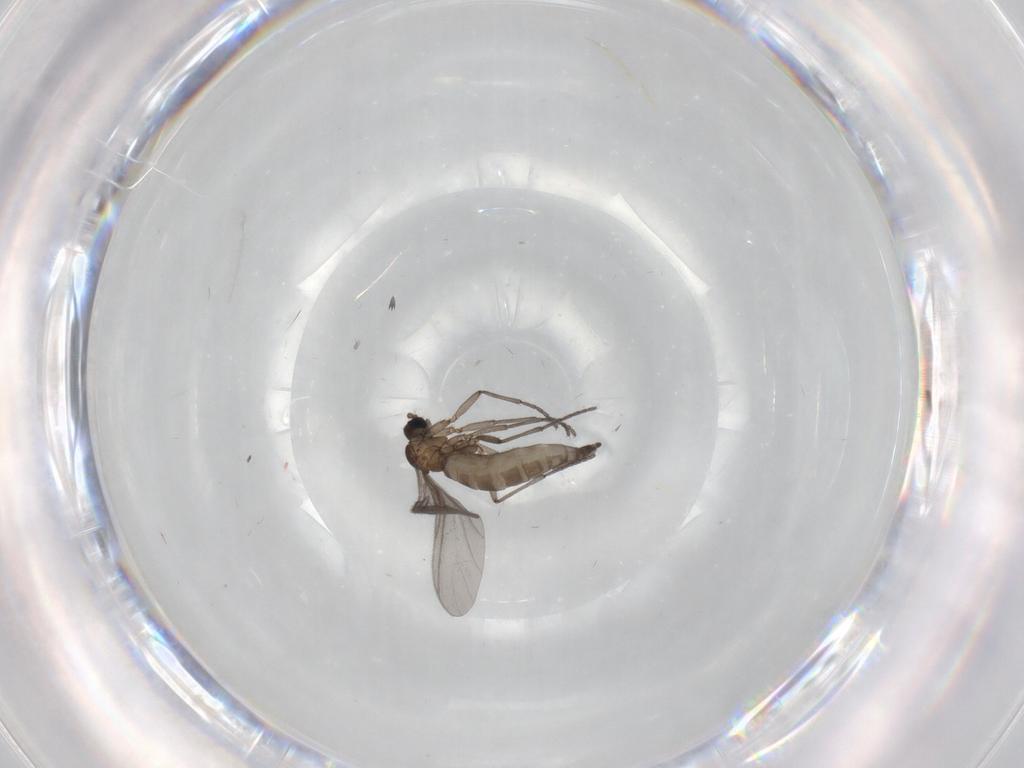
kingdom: Animalia
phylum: Arthropoda
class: Insecta
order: Diptera
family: Sciaridae
